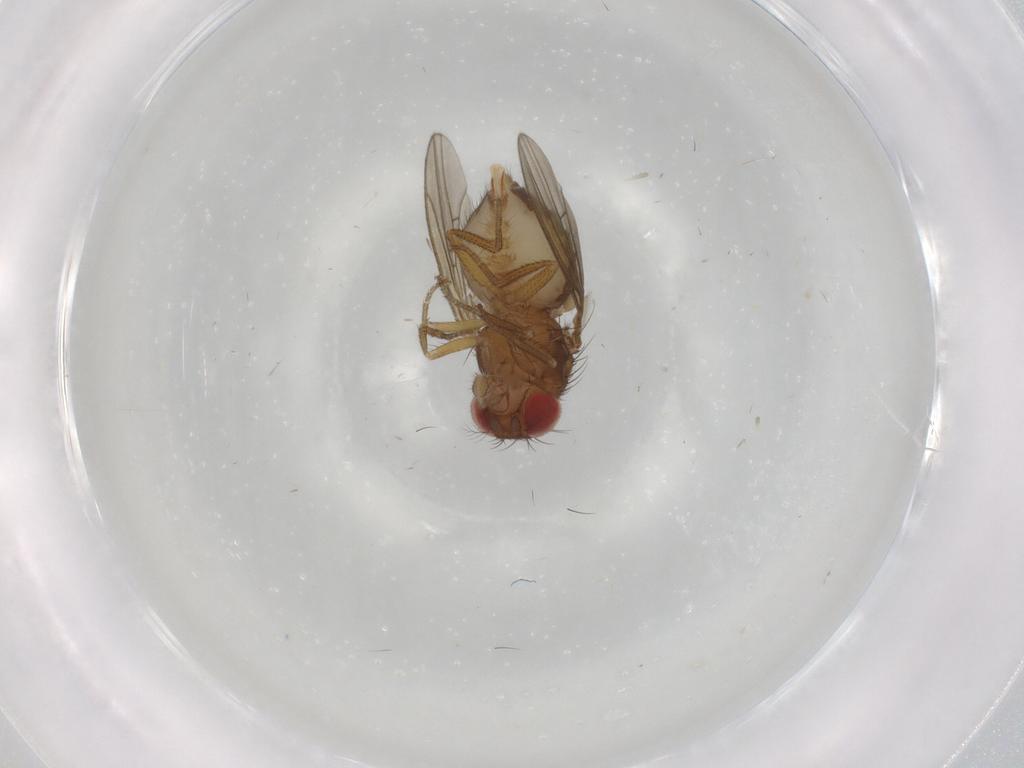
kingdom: Animalia
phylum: Arthropoda
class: Insecta
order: Diptera
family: Drosophilidae
